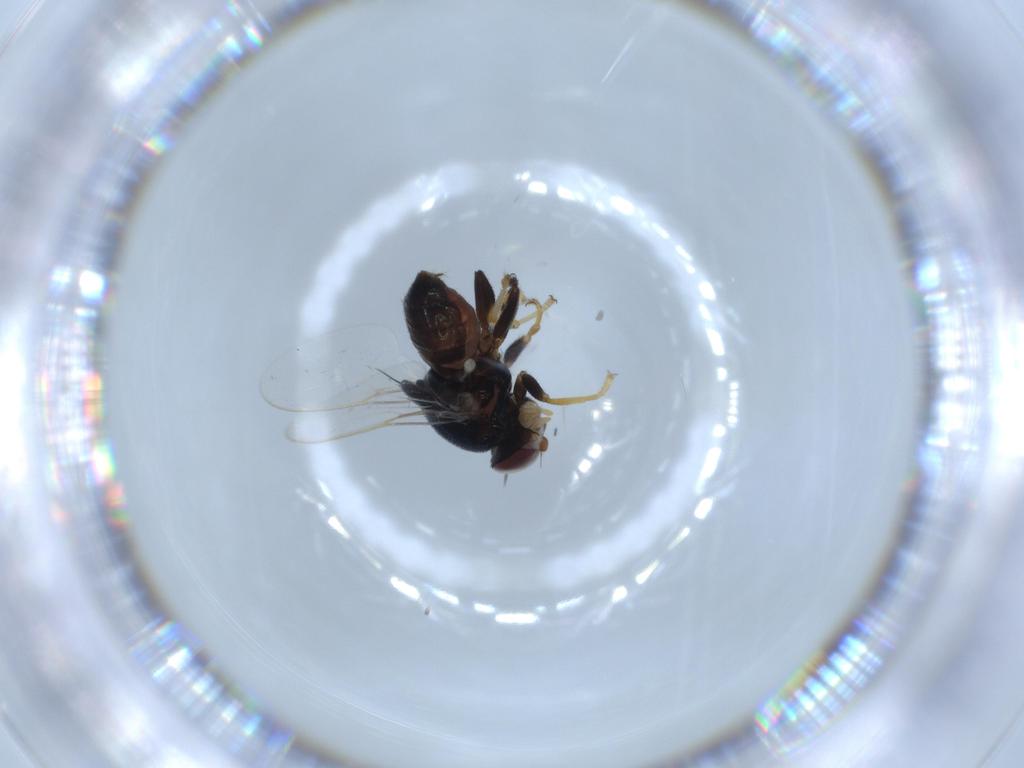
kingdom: Animalia
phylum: Arthropoda
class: Insecta
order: Diptera
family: Chloropidae
